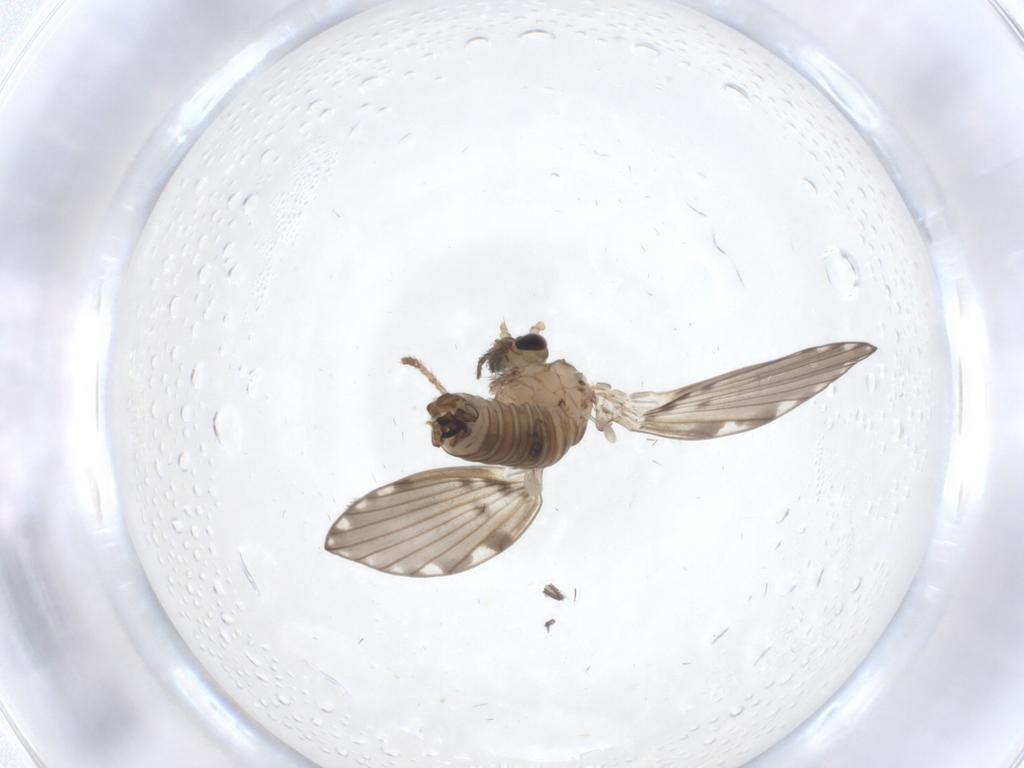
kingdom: Animalia
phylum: Arthropoda
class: Insecta
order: Diptera
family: Psychodidae
